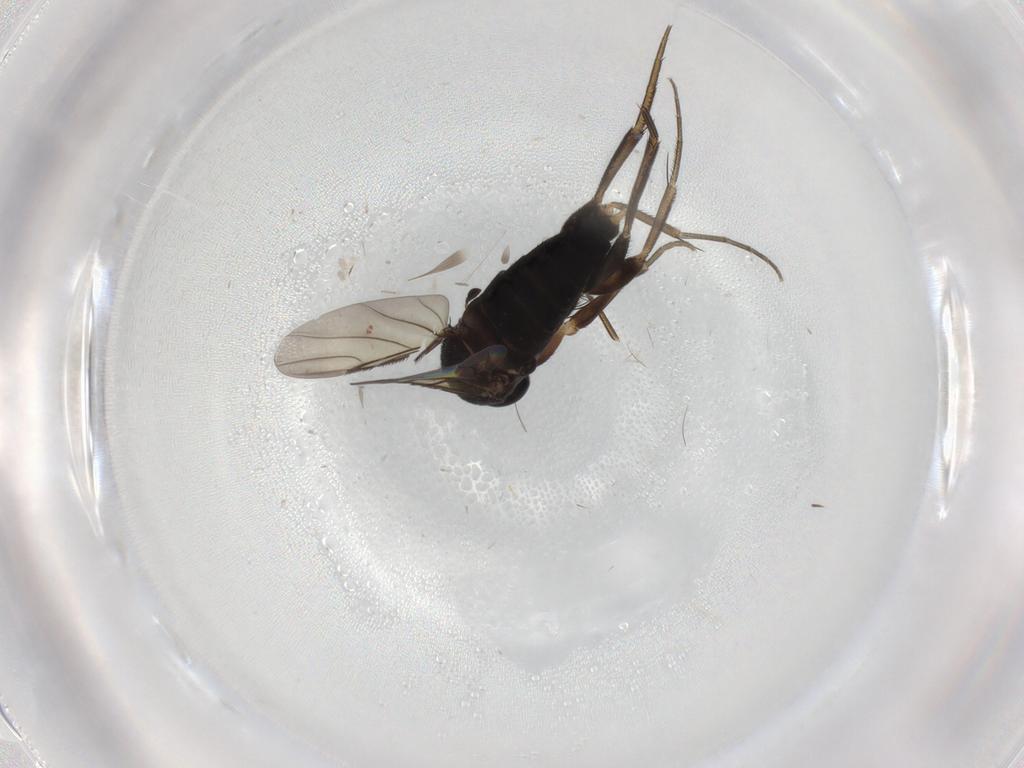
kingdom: Animalia
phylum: Arthropoda
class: Insecta
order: Diptera
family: Phoridae
